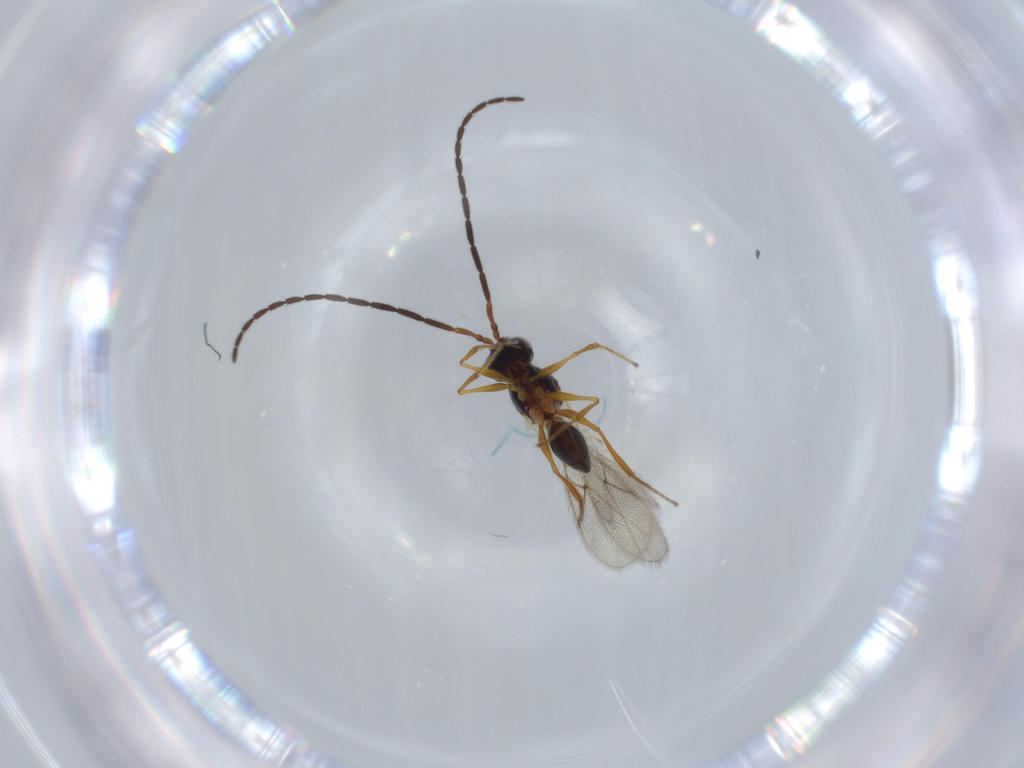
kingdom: Animalia
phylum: Arthropoda
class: Insecta
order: Hymenoptera
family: Figitidae
